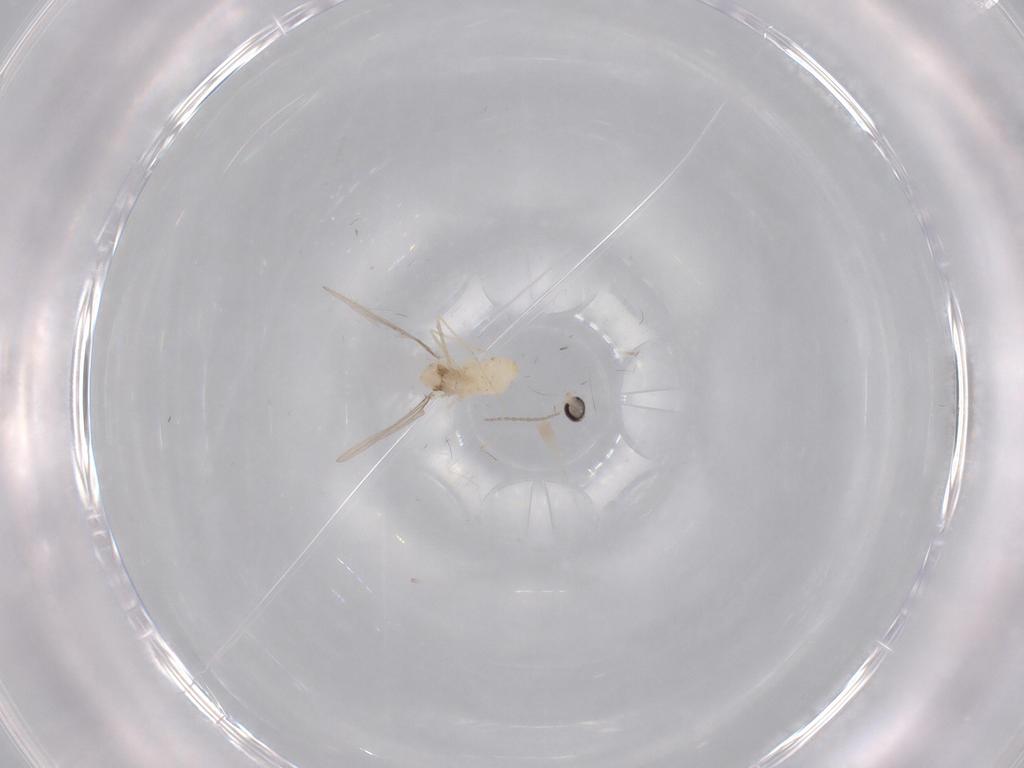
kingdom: Animalia
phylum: Arthropoda
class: Insecta
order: Diptera
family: Cecidomyiidae
